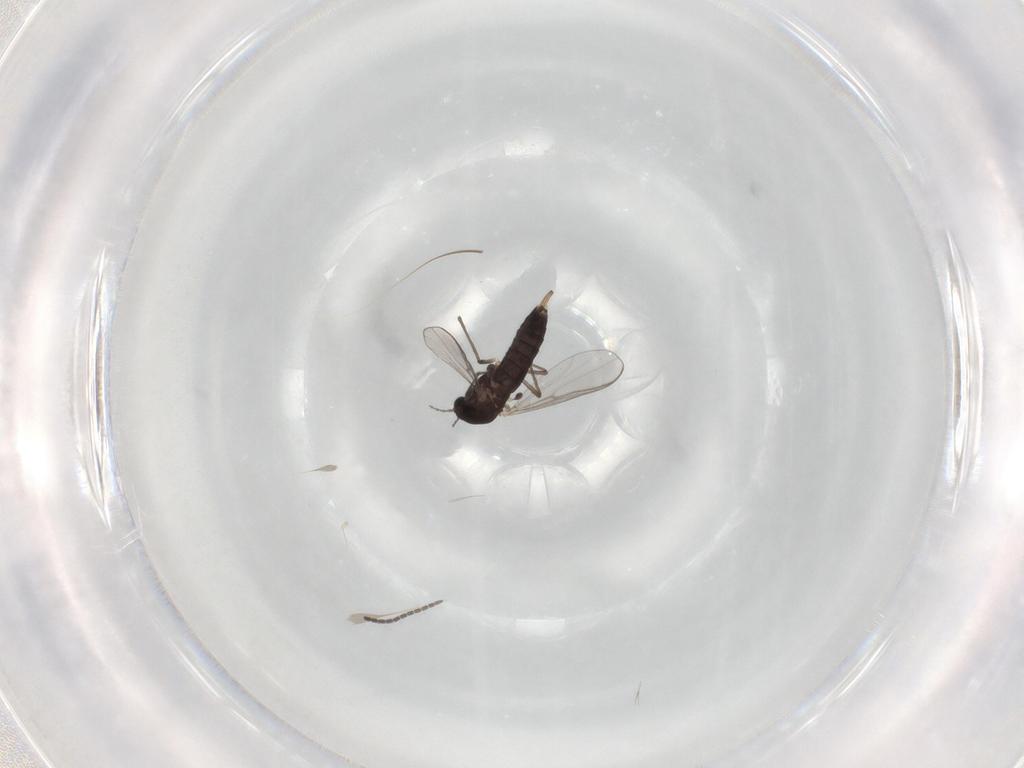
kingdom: Animalia
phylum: Arthropoda
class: Insecta
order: Diptera
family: Chironomidae
